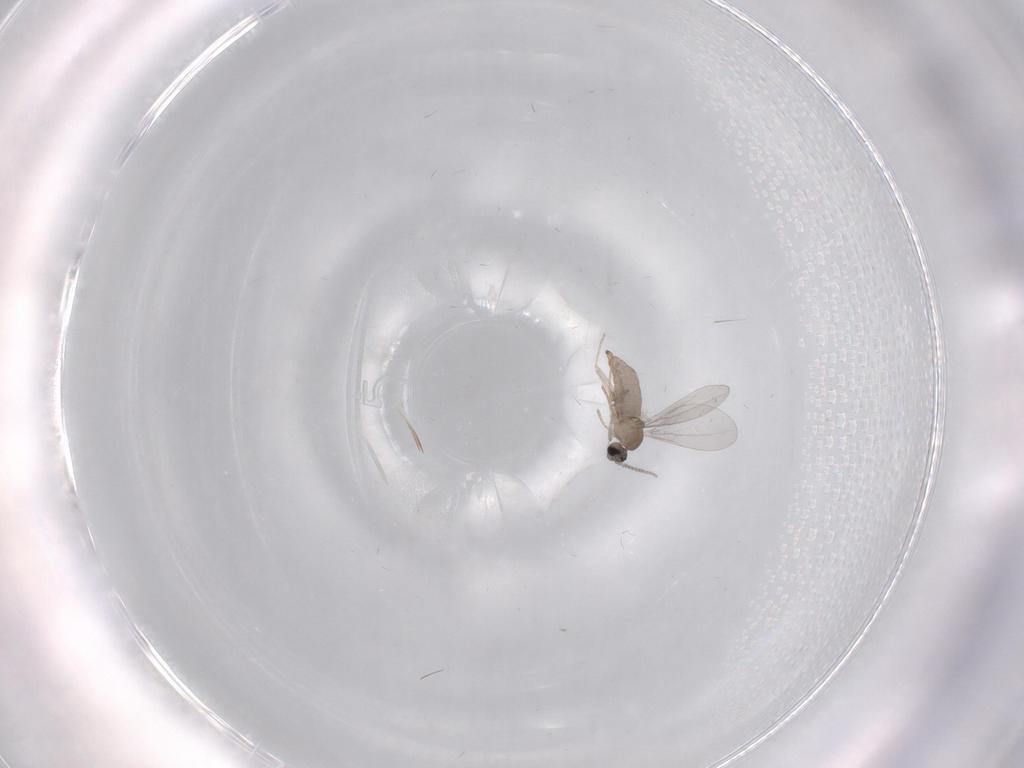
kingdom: Animalia
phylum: Arthropoda
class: Insecta
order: Diptera
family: Cecidomyiidae
